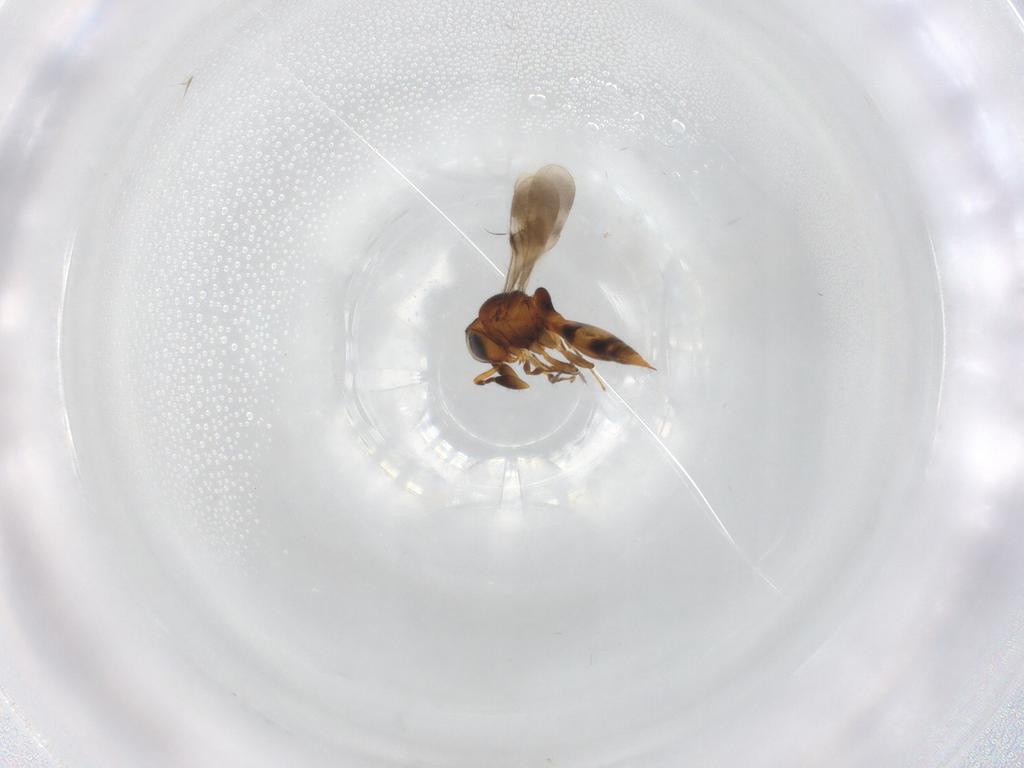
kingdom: Animalia
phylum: Arthropoda
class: Insecta
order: Hymenoptera
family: Scelionidae
